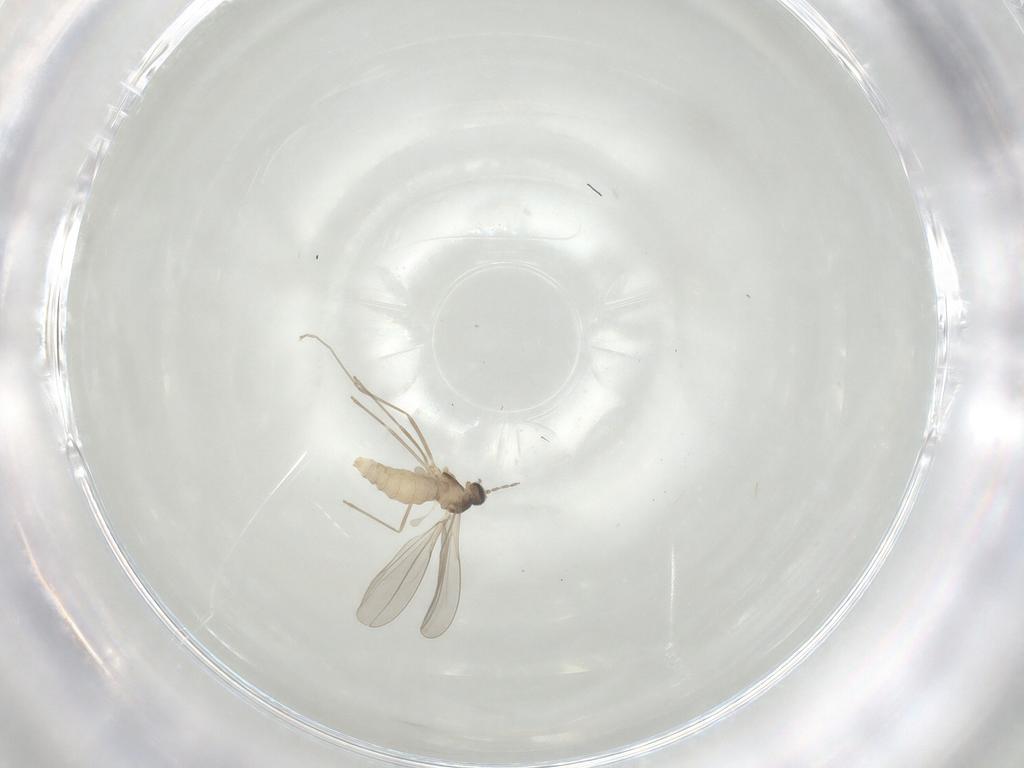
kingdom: Animalia
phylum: Arthropoda
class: Insecta
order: Diptera
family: Cecidomyiidae
